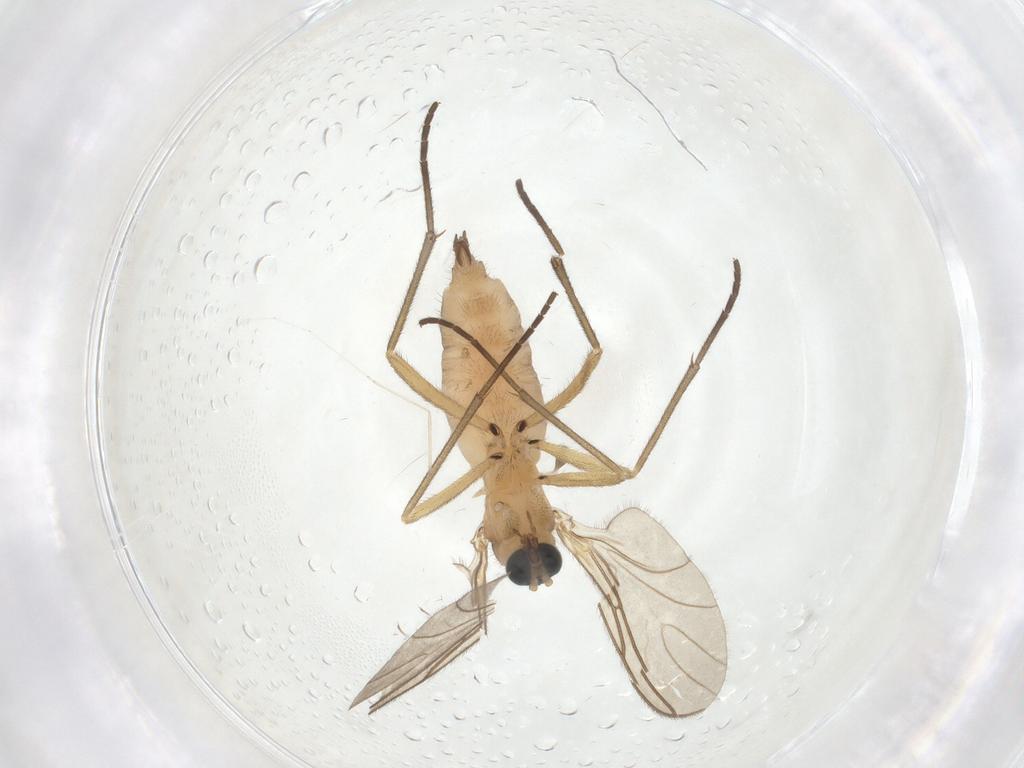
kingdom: Animalia
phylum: Arthropoda
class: Insecta
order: Diptera
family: Sciaridae
